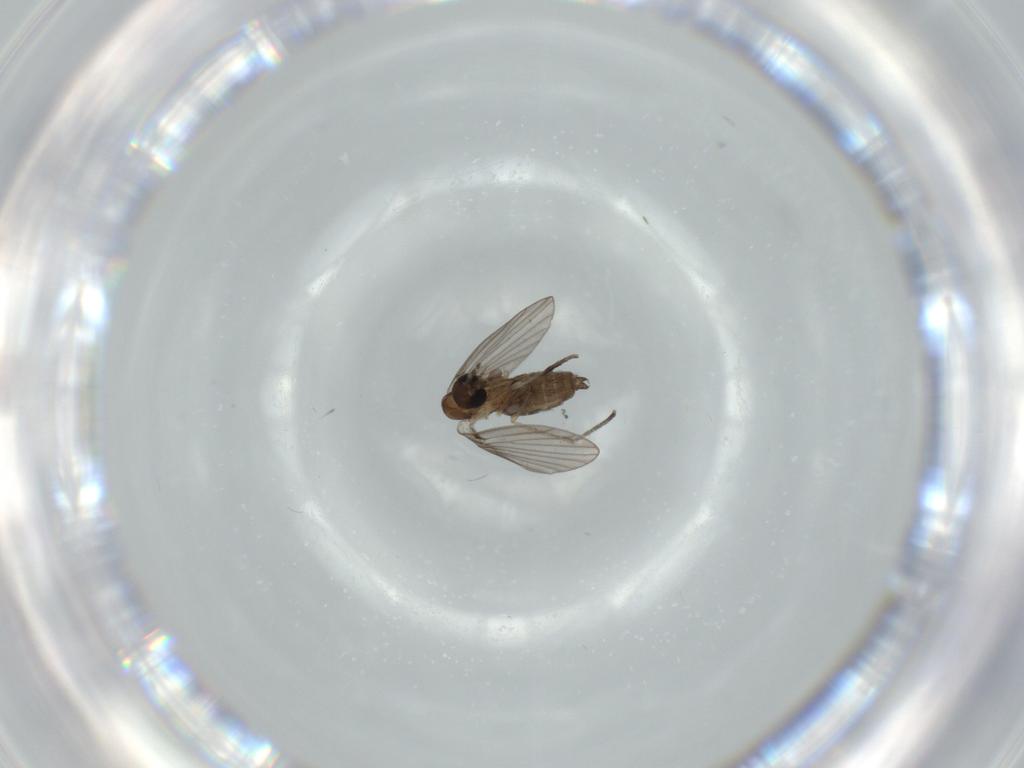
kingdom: Animalia
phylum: Arthropoda
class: Insecta
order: Diptera
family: Psychodidae
